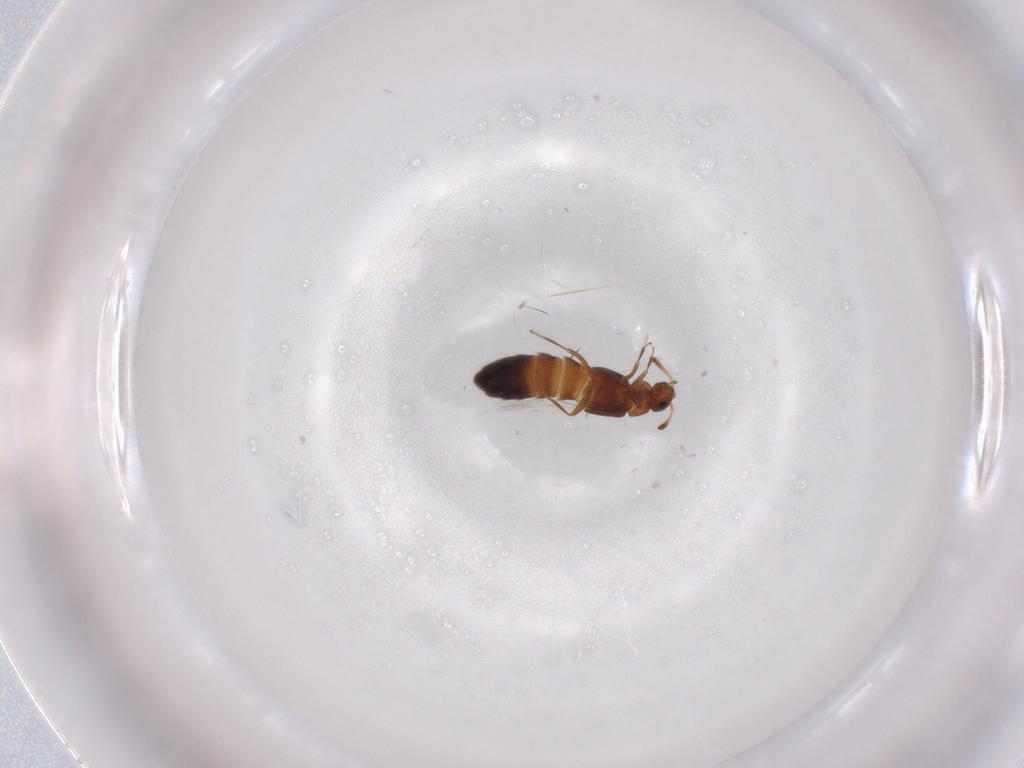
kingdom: Animalia
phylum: Arthropoda
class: Insecta
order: Coleoptera
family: Staphylinidae
